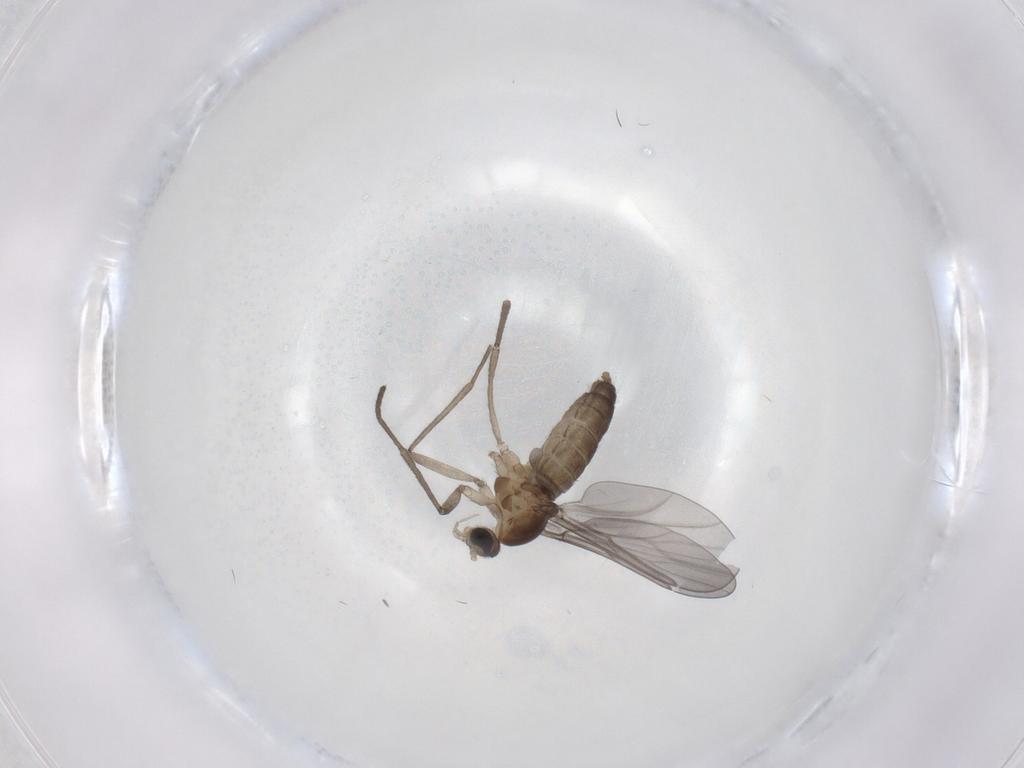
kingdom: Animalia
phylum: Arthropoda
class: Insecta
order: Diptera
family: Cecidomyiidae
